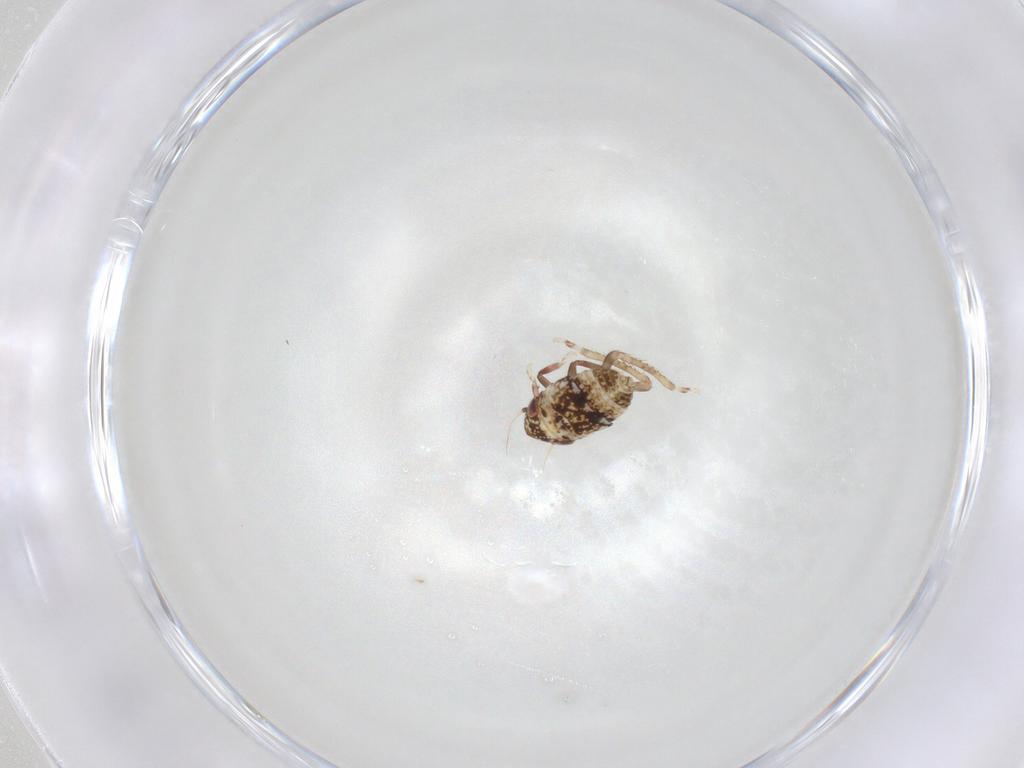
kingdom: Animalia
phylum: Arthropoda
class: Insecta
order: Hemiptera
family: Cicadellidae
